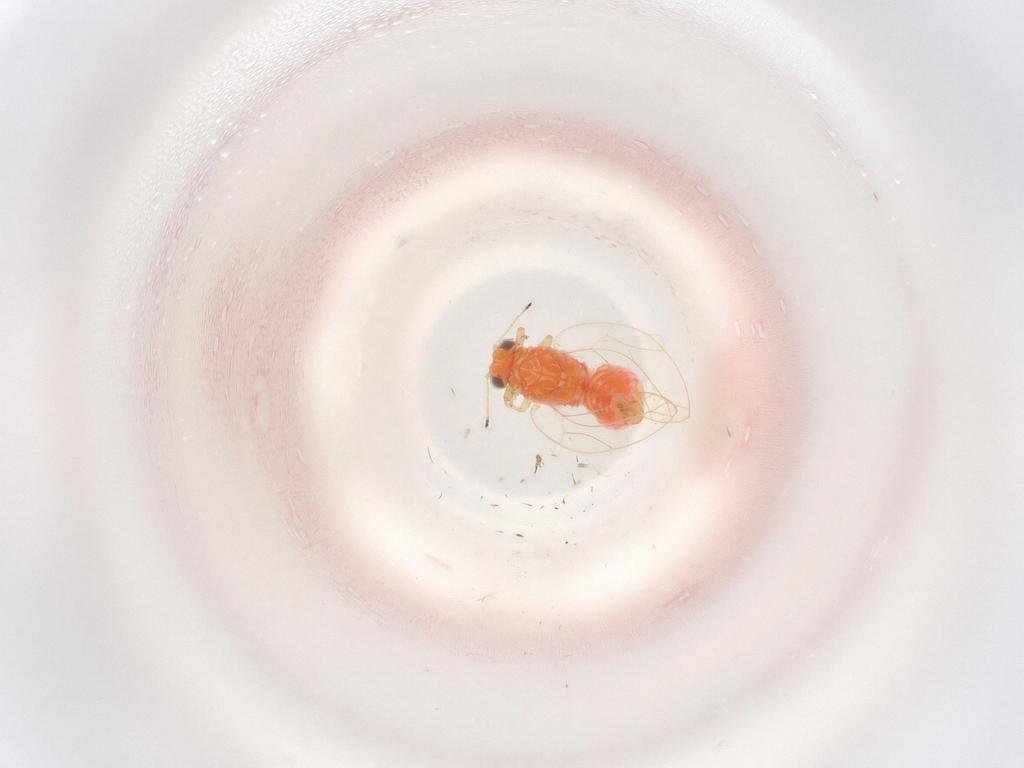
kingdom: Animalia
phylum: Arthropoda
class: Insecta
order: Hemiptera
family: Triozidae
